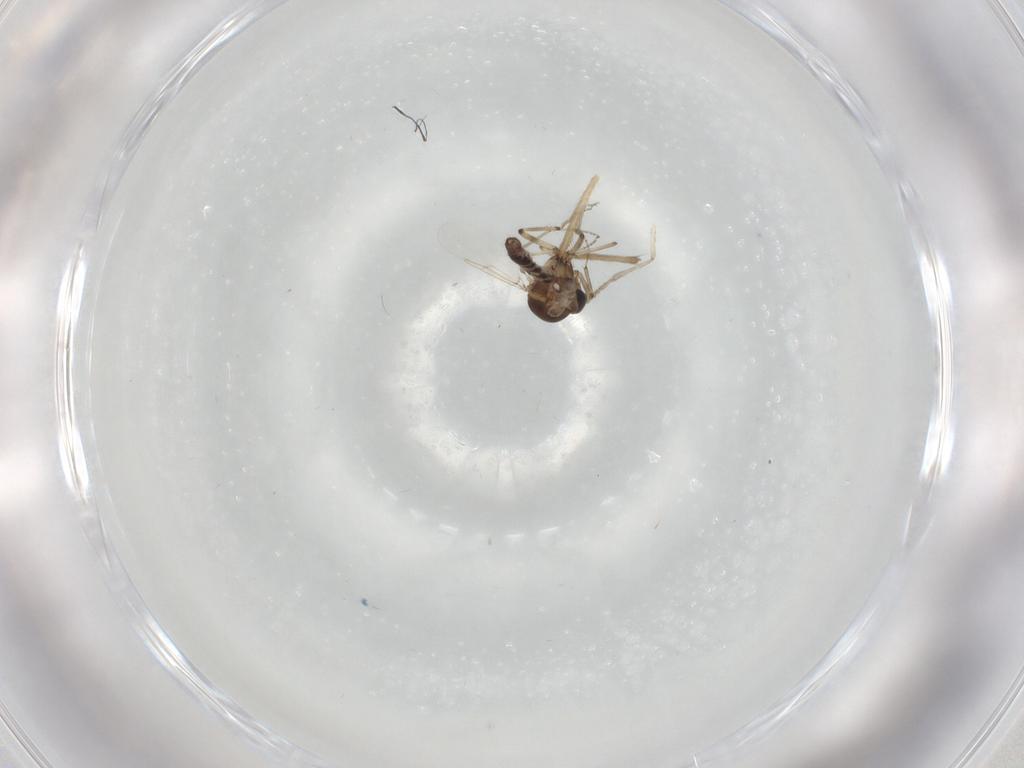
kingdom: Animalia
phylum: Arthropoda
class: Insecta
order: Diptera
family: Ceratopogonidae
